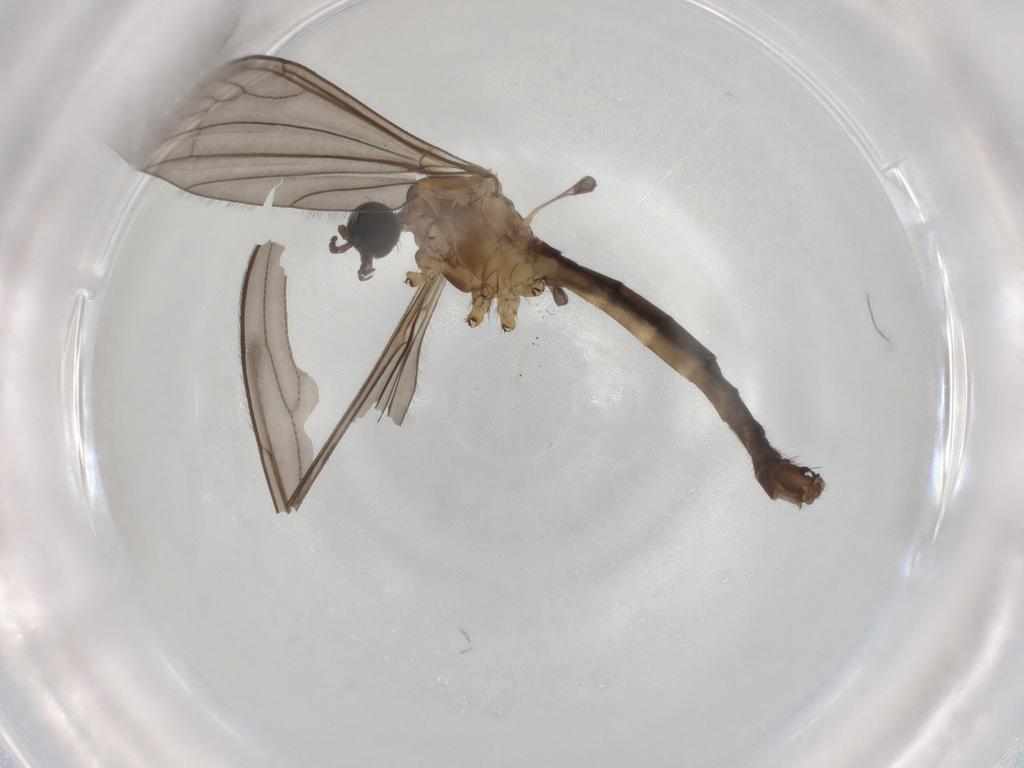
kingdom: Animalia
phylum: Arthropoda
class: Insecta
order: Diptera
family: Limoniidae
